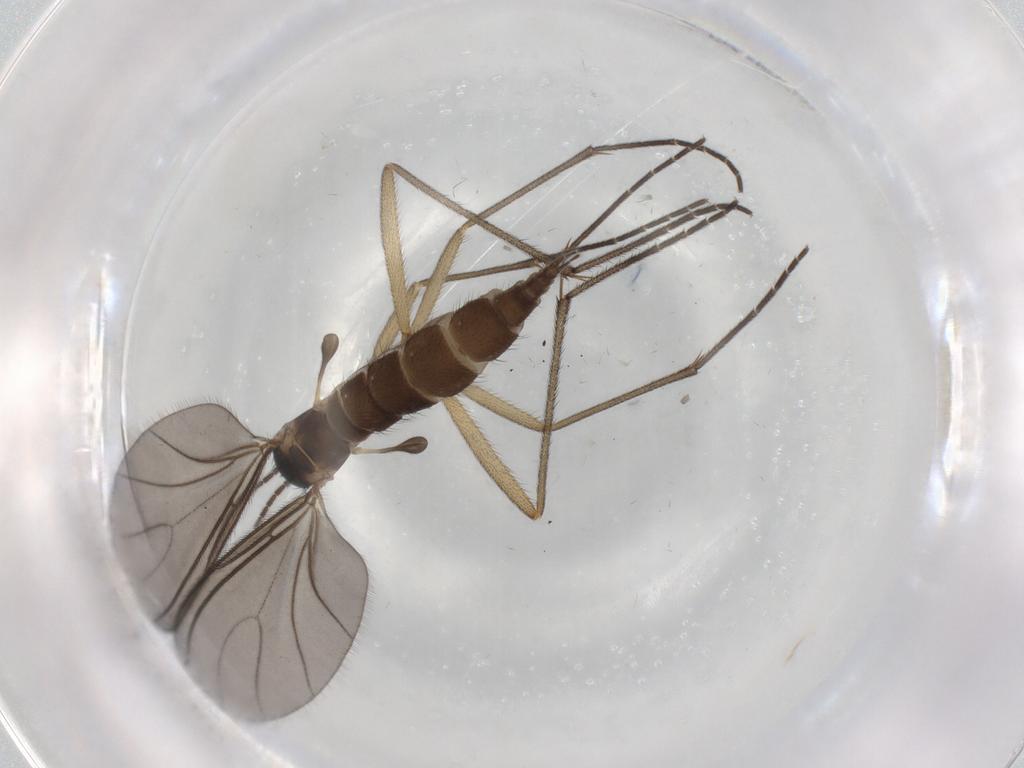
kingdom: Animalia
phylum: Arthropoda
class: Insecta
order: Diptera
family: Sciaridae
